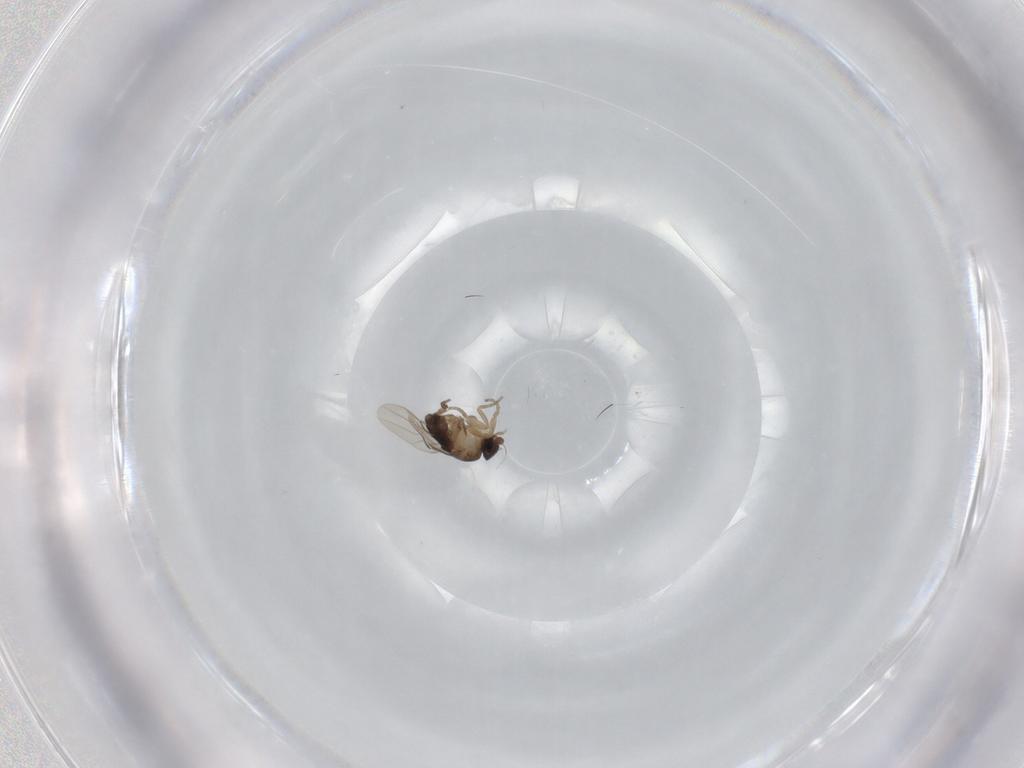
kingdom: Animalia
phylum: Arthropoda
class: Insecta
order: Diptera
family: Phoridae
